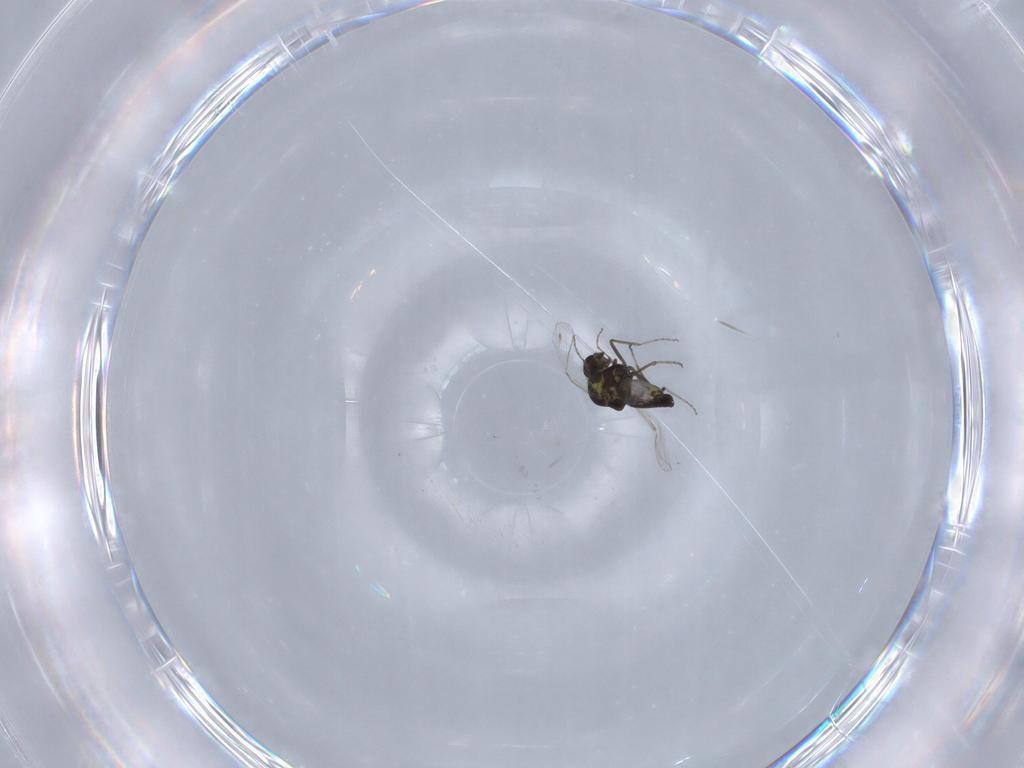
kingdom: Animalia
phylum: Arthropoda
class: Insecta
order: Diptera
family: Ceratopogonidae
